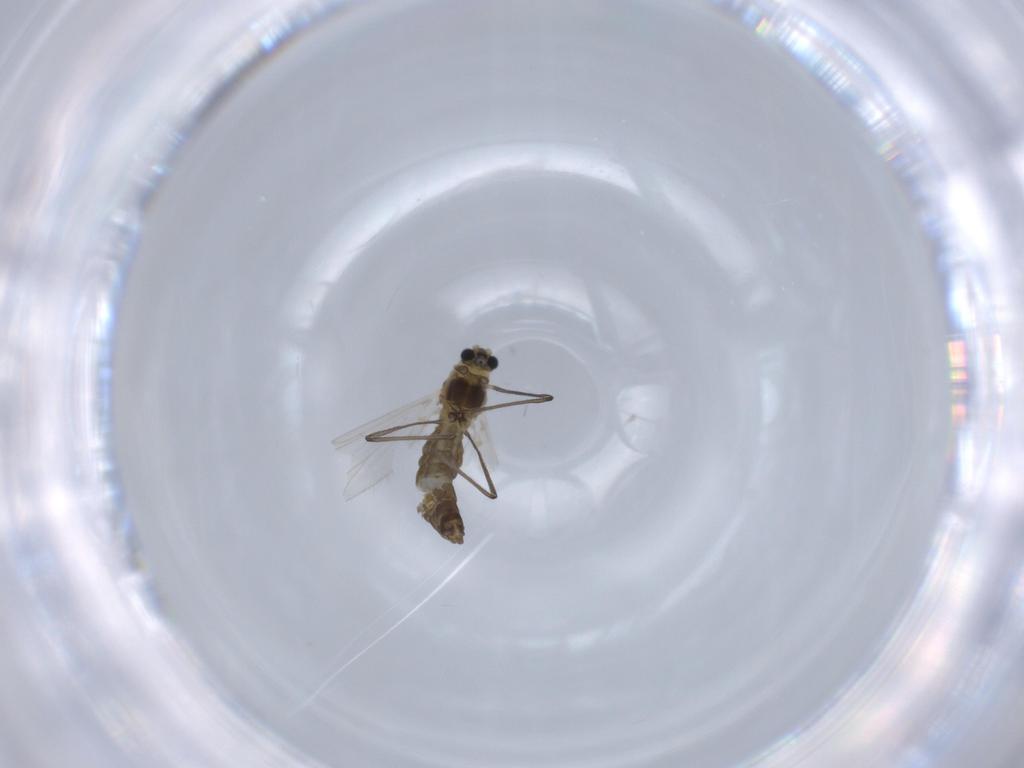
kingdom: Animalia
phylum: Arthropoda
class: Insecta
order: Diptera
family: Chironomidae
